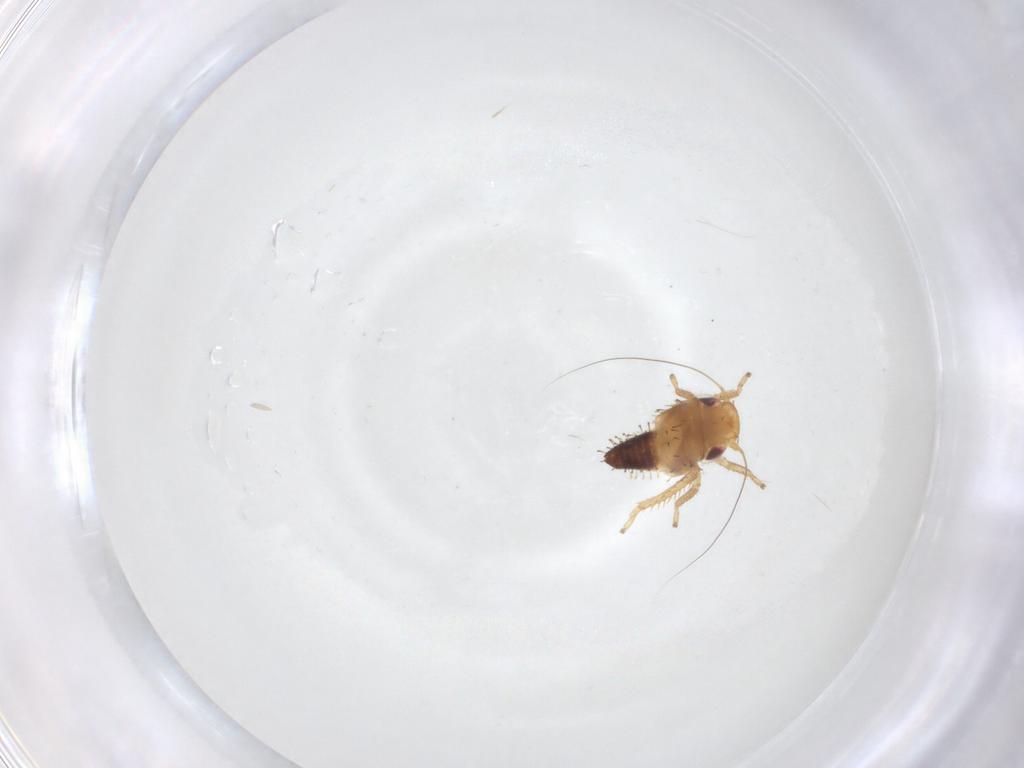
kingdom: Animalia
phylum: Arthropoda
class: Insecta
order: Hemiptera
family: Cicadellidae
